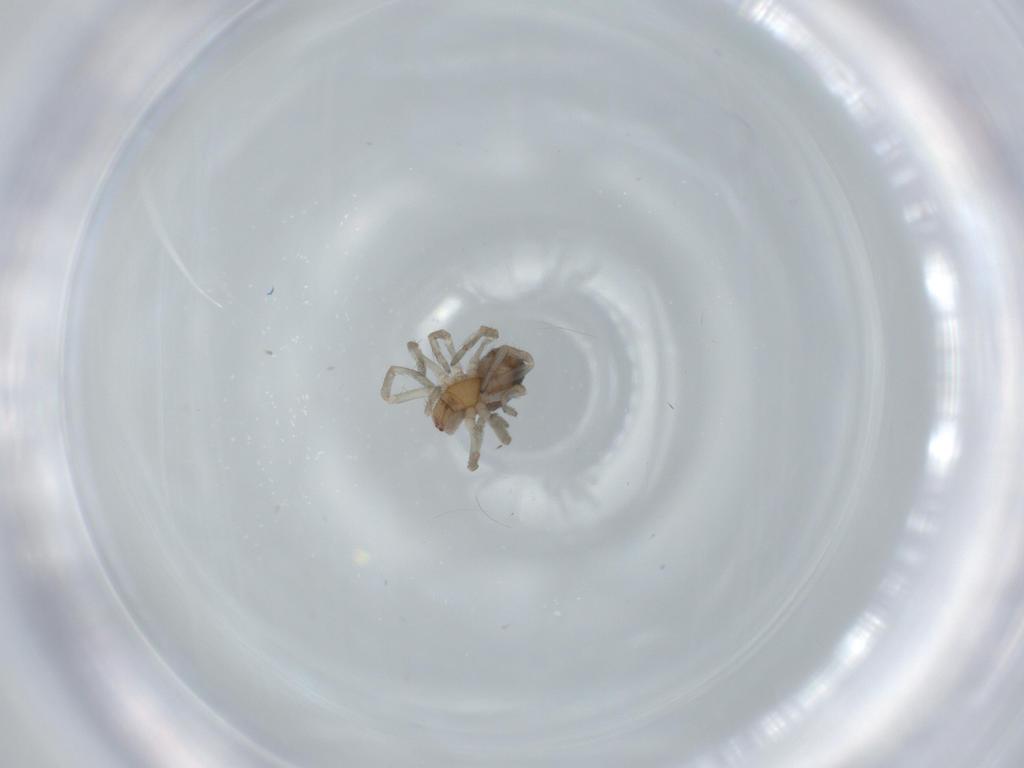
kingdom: Animalia
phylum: Arthropoda
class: Arachnida
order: Araneae
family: Dictynidae
